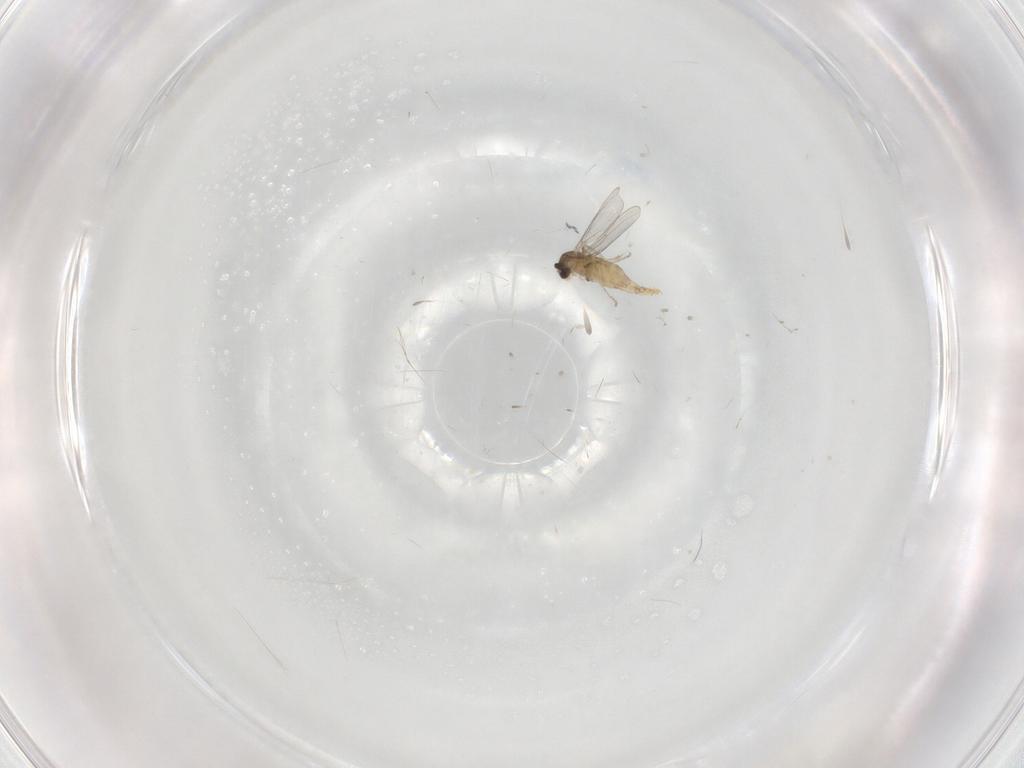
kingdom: Animalia
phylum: Arthropoda
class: Insecta
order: Diptera
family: Cecidomyiidae
